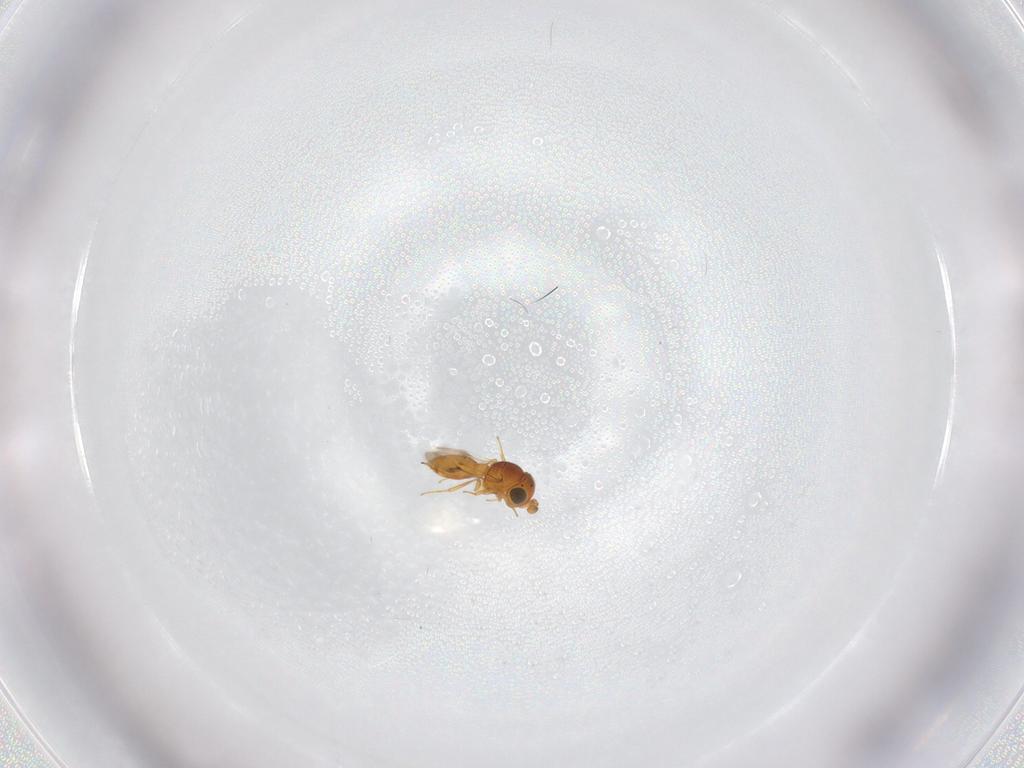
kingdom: Animalia
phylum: Arthropoda
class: Insecta
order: Hymenoptera
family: Scelionidae
